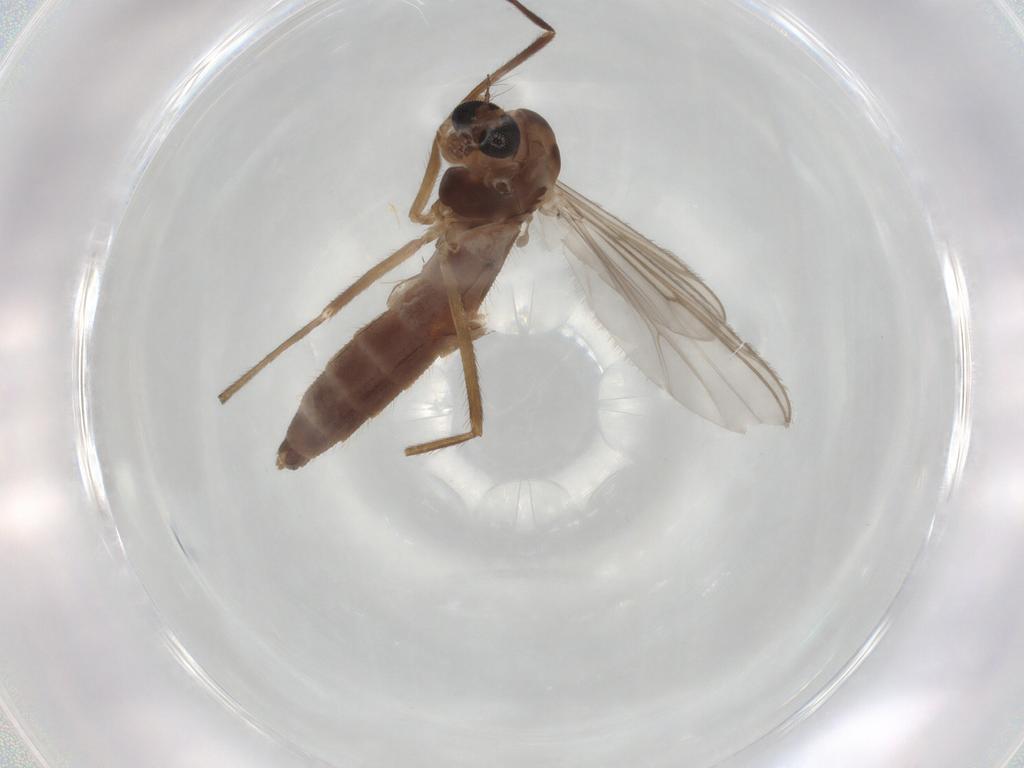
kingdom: Animalia
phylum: Arthropoda
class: Insecta
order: Diptera
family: Chironomidae
